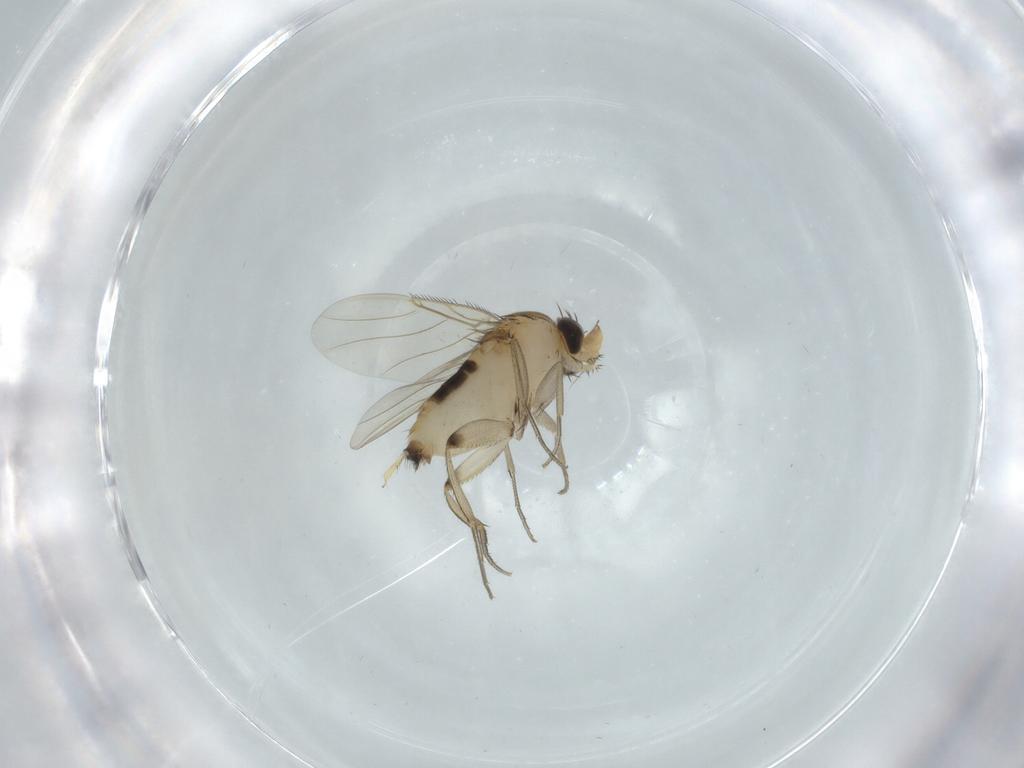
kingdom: Animalia
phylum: Arthropoda
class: Insecta
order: Diptera
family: Phoridae
